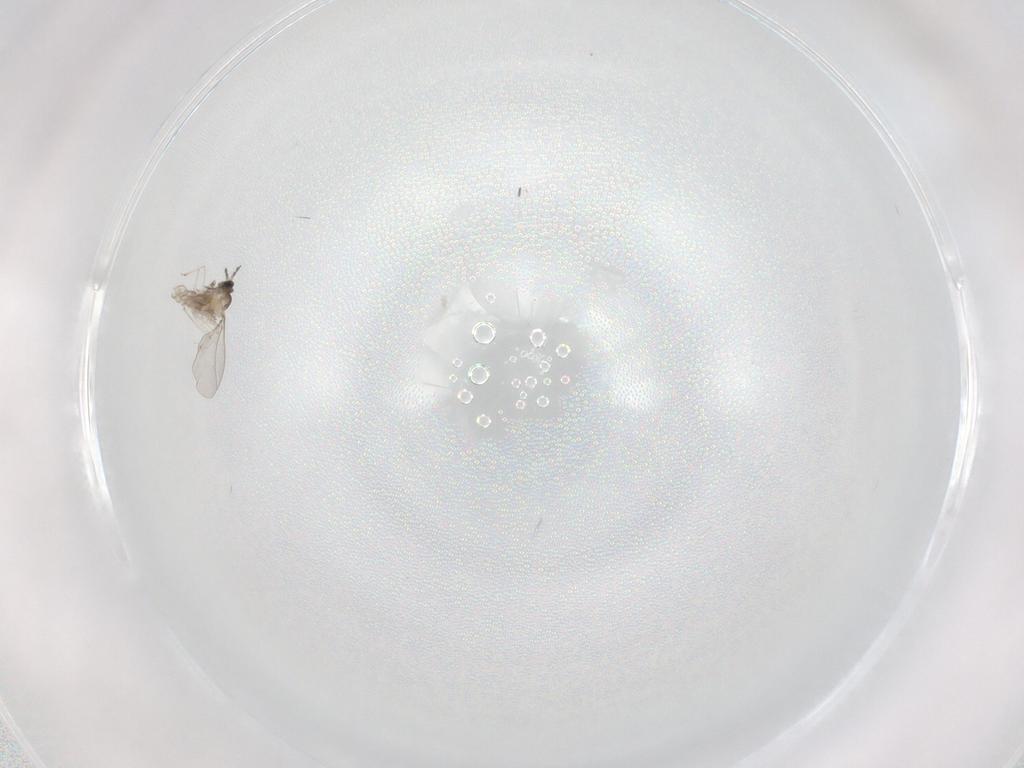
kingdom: Animalia
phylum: Arthropoda
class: Insecta
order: Diptera
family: Cecidomyiidae
